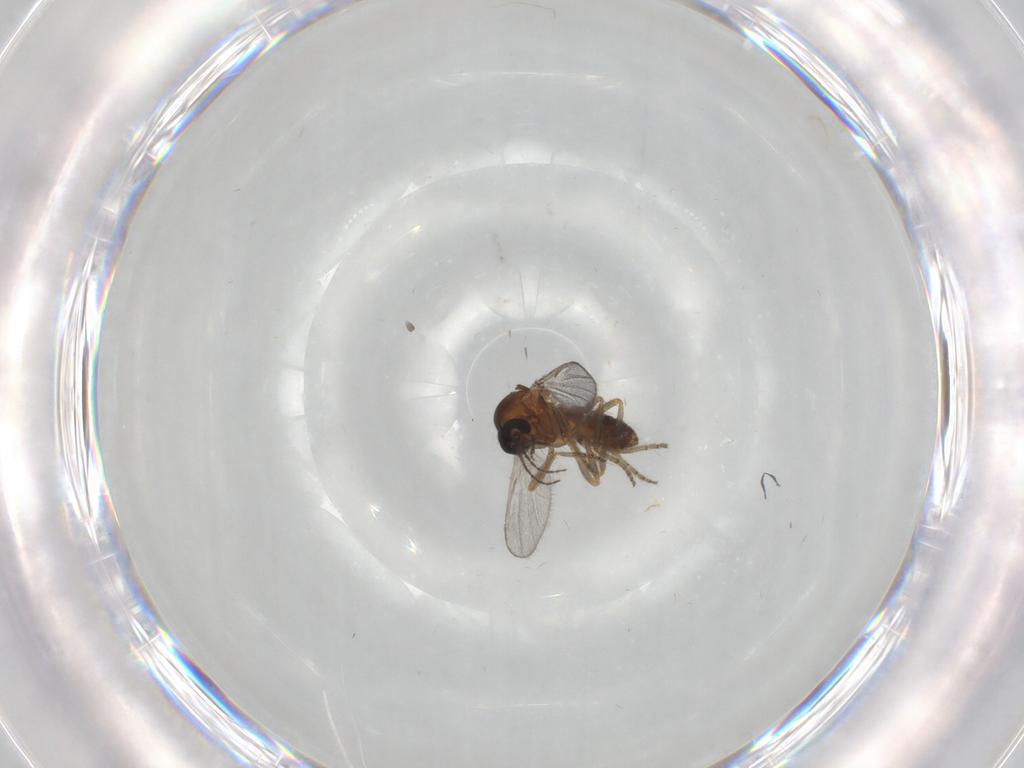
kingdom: Animalia
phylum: Arthropoda
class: Insecta
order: Diptera
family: Ceratopogonidae
